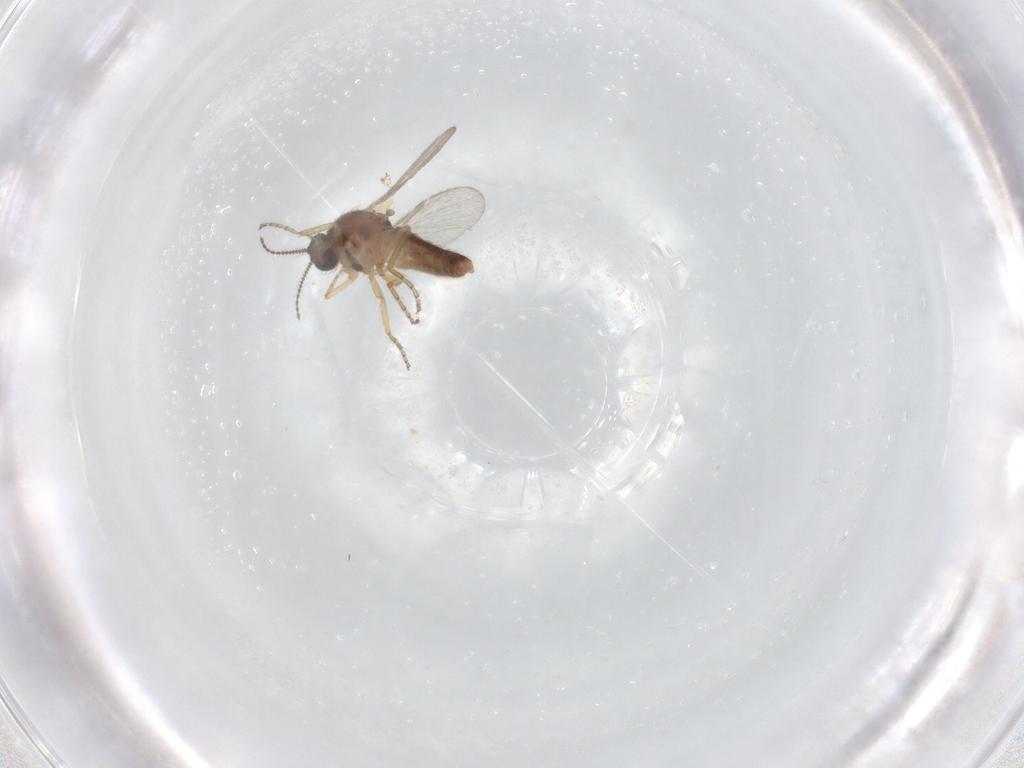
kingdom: Animalia
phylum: Arthropoda
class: Insecta
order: Diptera
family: Ceratopogonidae
